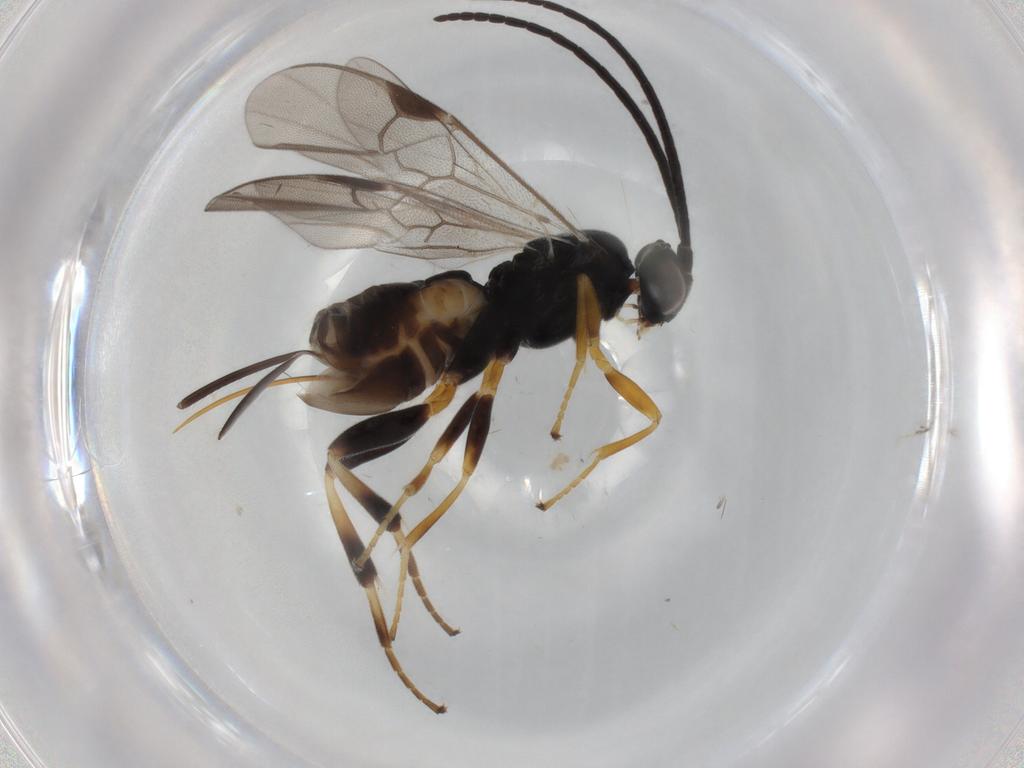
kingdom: Animalia
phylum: Arthropoda
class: Insecta
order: Hymenoptera
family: Braconidae
